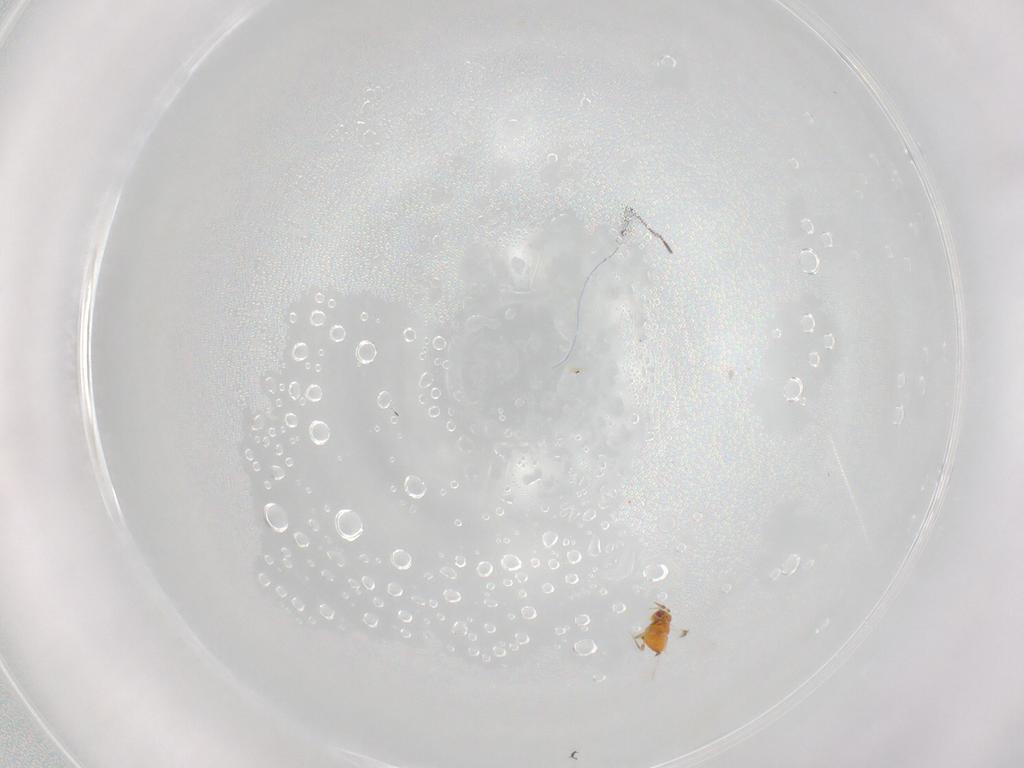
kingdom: Animalia
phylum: Arthropoda
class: Insecta
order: Hymenoptera
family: Trichogrammatidae
